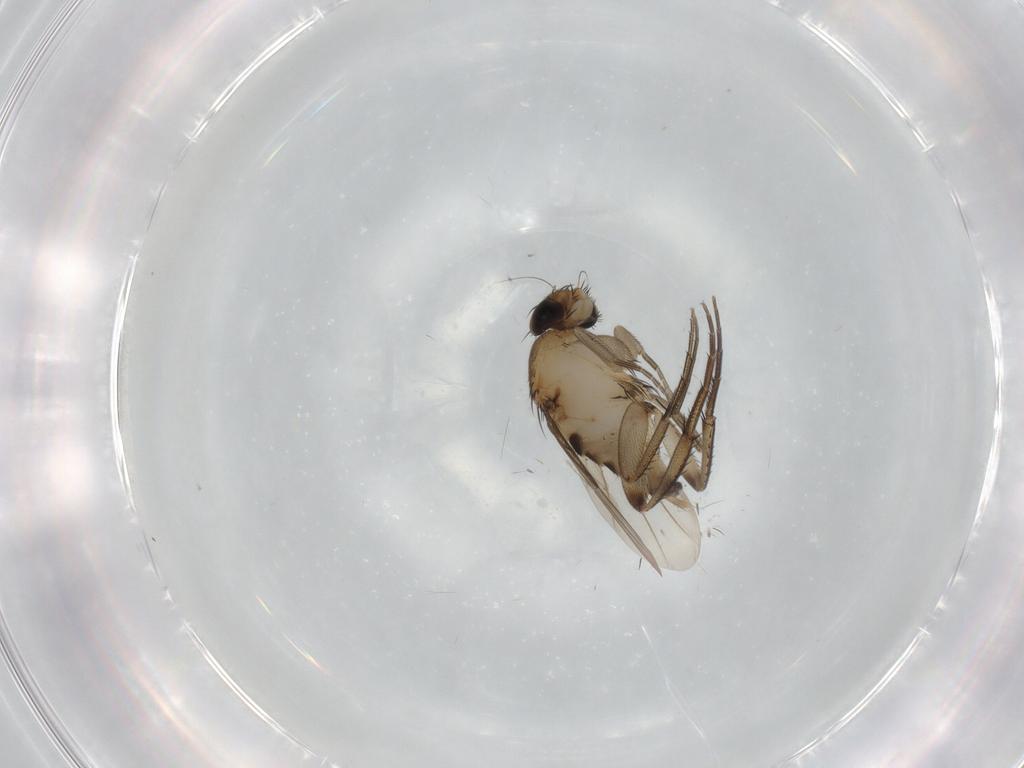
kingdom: Animalia
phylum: Arthropoda
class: Insecta
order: Diptera
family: Phoridae
